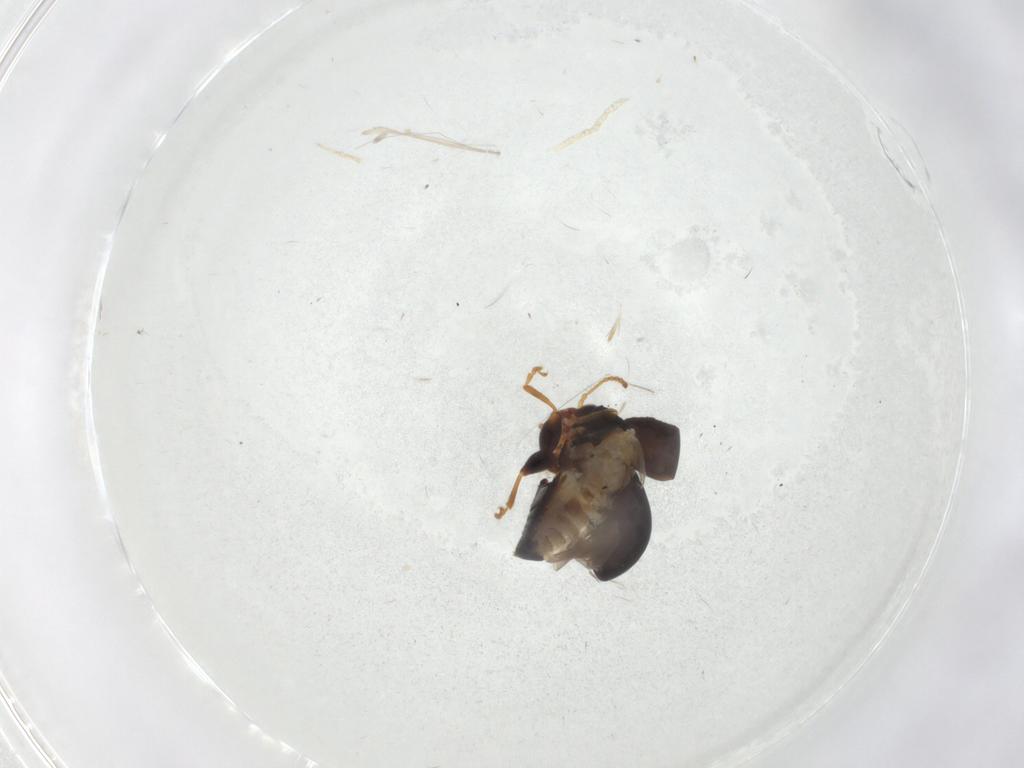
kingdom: Animalia
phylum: Arthropoda
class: Insecta
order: Coleoptera
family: Chrysomelidae
